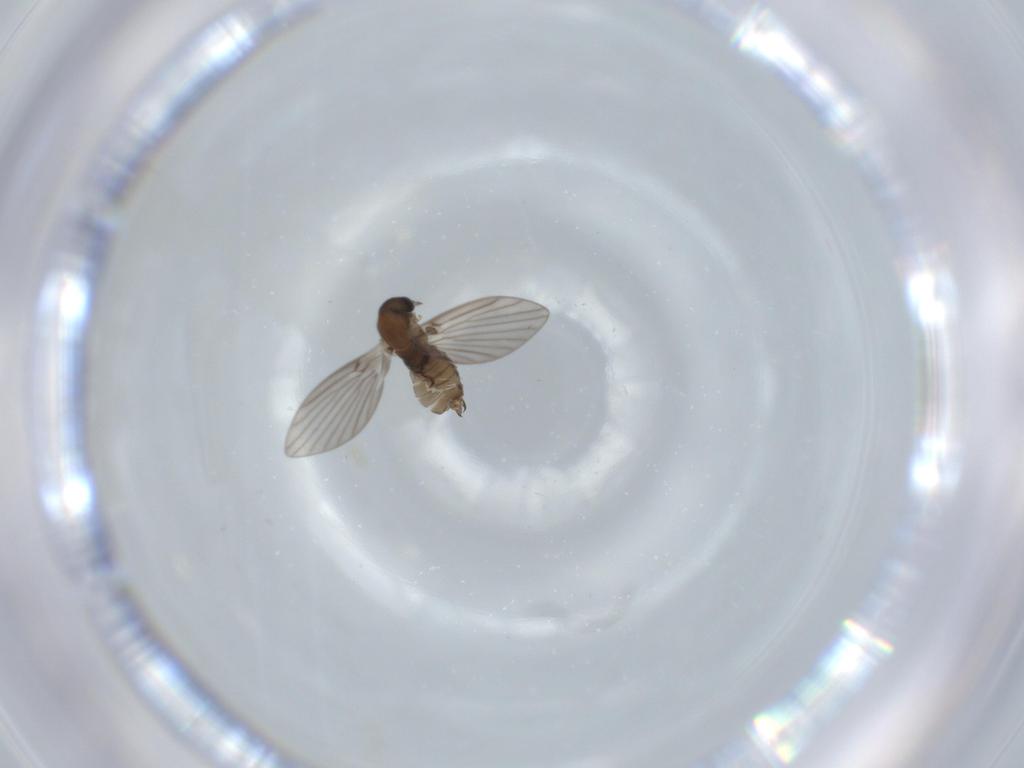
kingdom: Animalia
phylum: Arthropoda
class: Insecta
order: Diptera
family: Psychodidae
